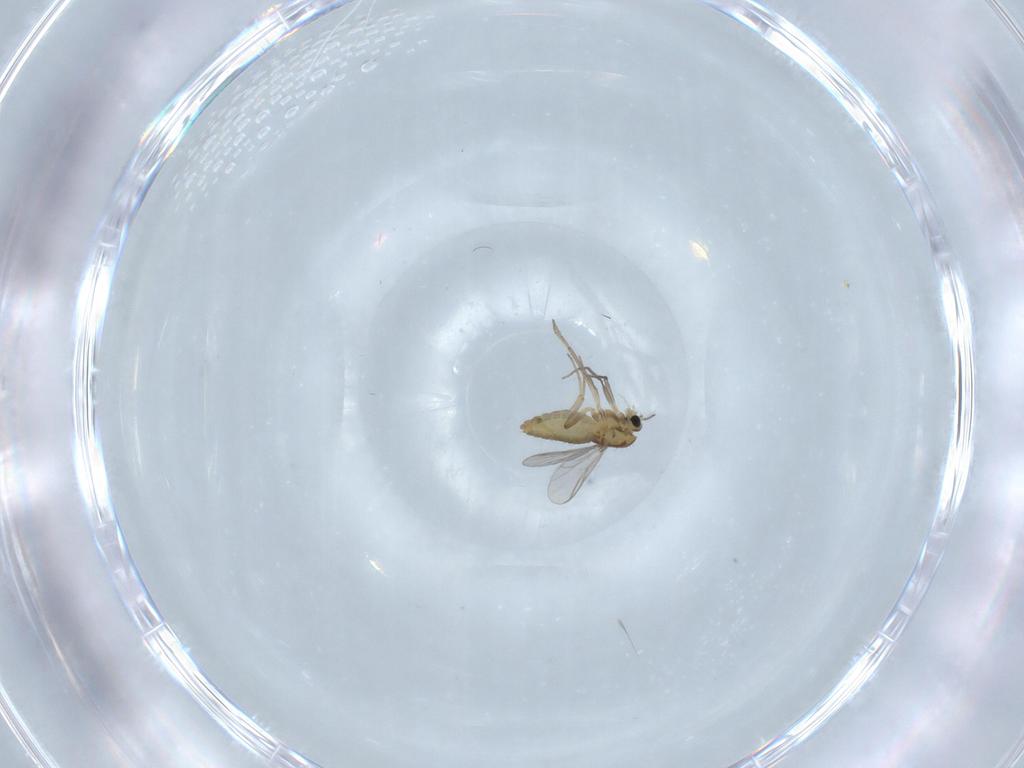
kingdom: Animalia
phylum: Arthropoda
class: Insecta
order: Diptera
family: Chironomidae
